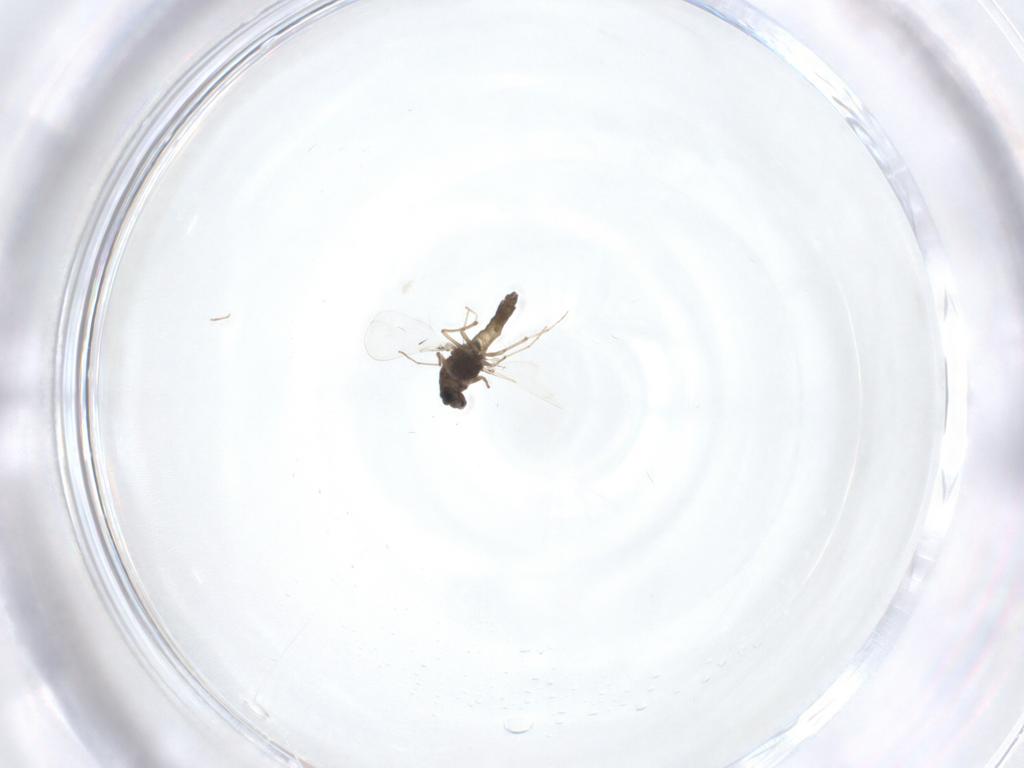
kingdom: Animalia
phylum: Arthropoda
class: Insecta
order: Diptera
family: Chironomidae
